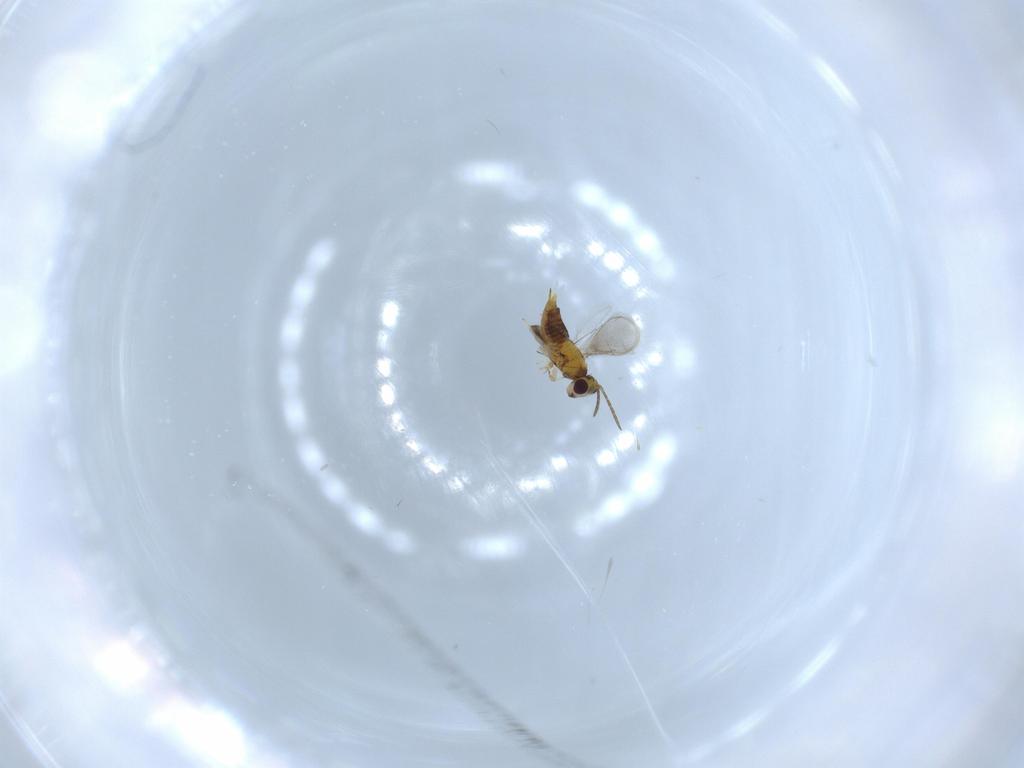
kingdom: Animalia
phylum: Arthropoda
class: Insecta
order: Hymenoptera
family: Aphelinidae
